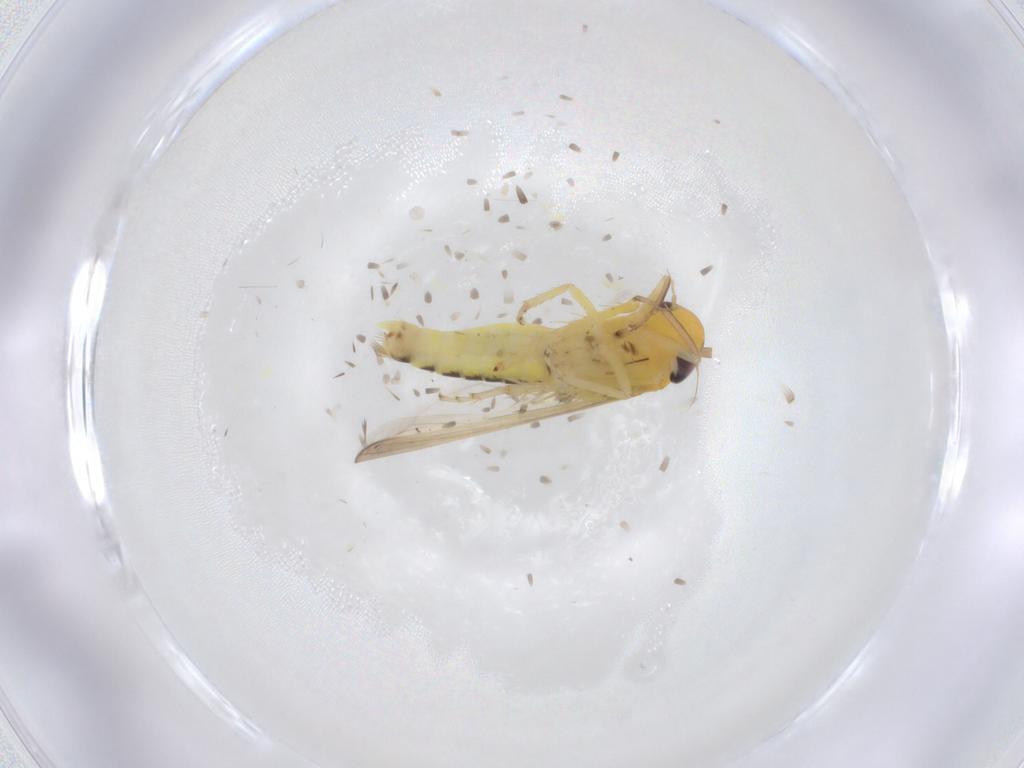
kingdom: Animalia
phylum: Arthropoda
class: Insecta
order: Hemiptera
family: Cicadellidae
